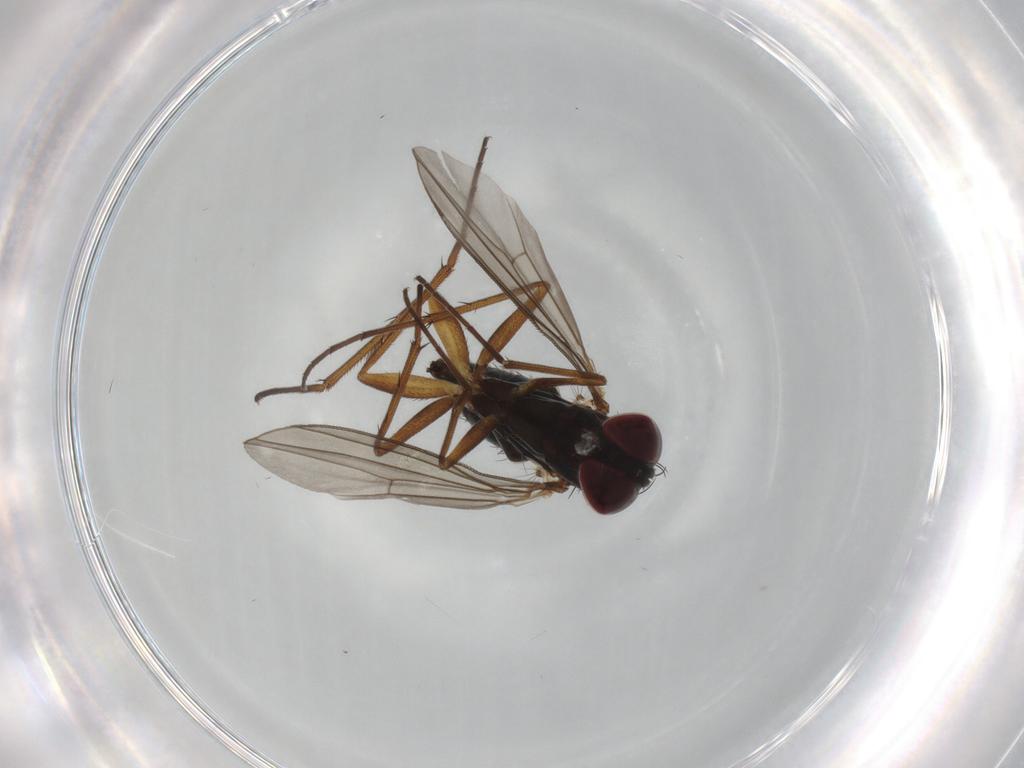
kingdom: Animalia
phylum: Arthropoda
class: Insecta
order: Diptera
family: Dolichopodidae
